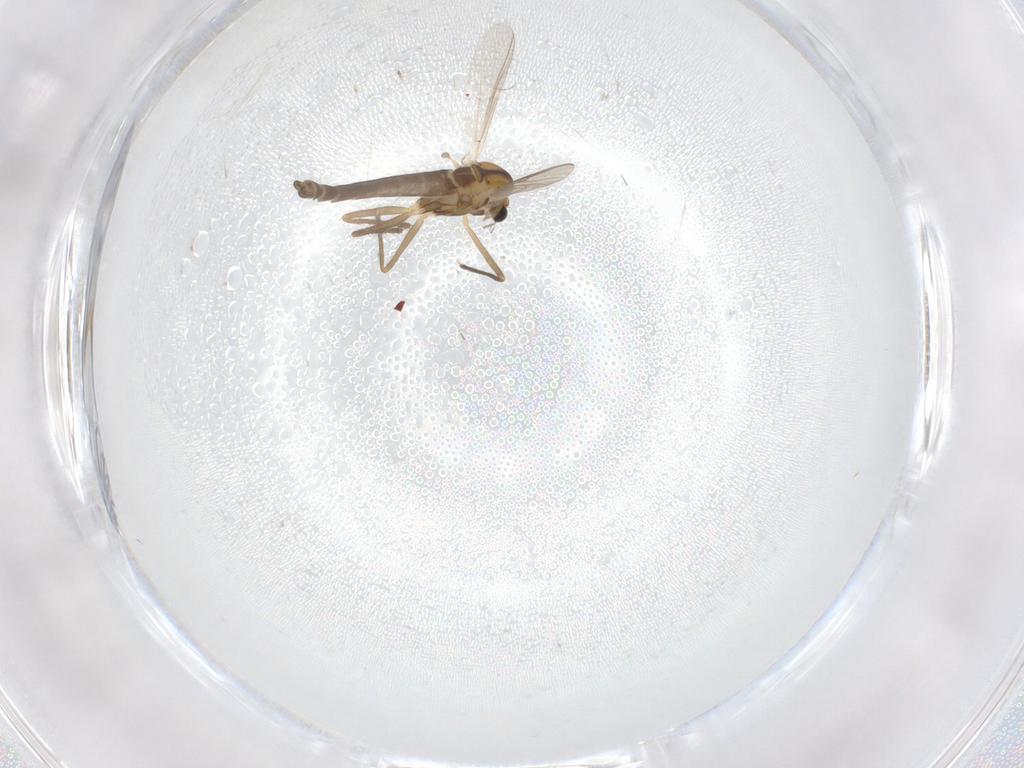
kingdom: Animalia
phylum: Arthropoda
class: Insecta
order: Diptera
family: Chironomidae
